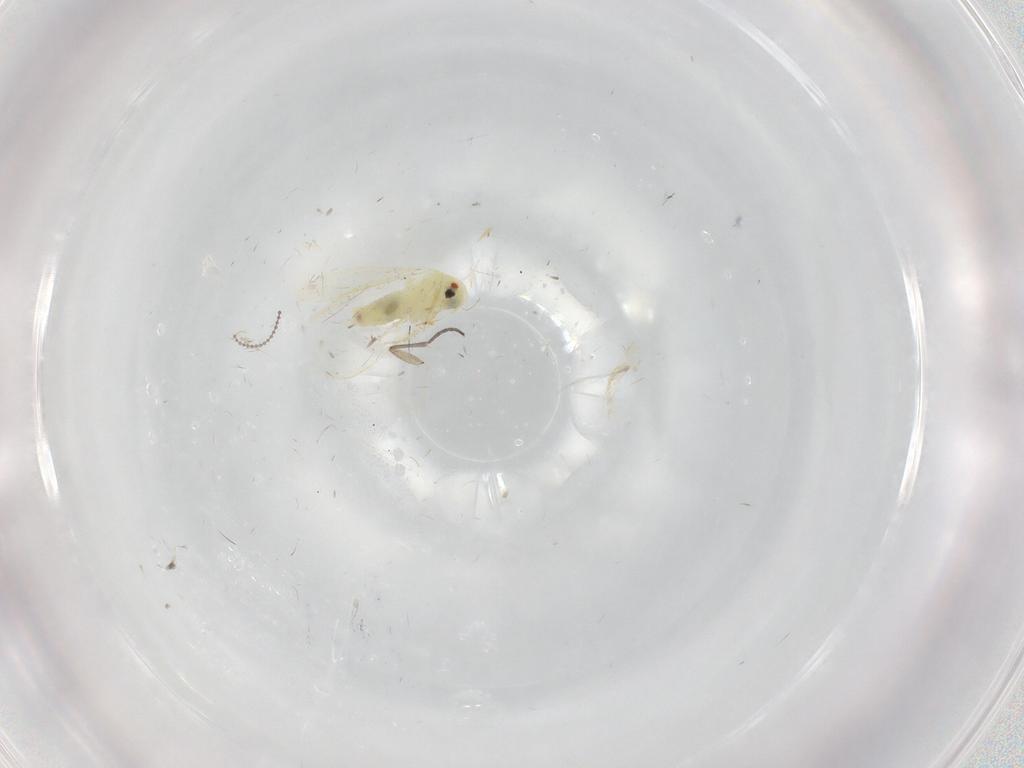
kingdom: Animalia
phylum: Arthropoda
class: Insecta
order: Hemiptera
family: Aleyrodidae
